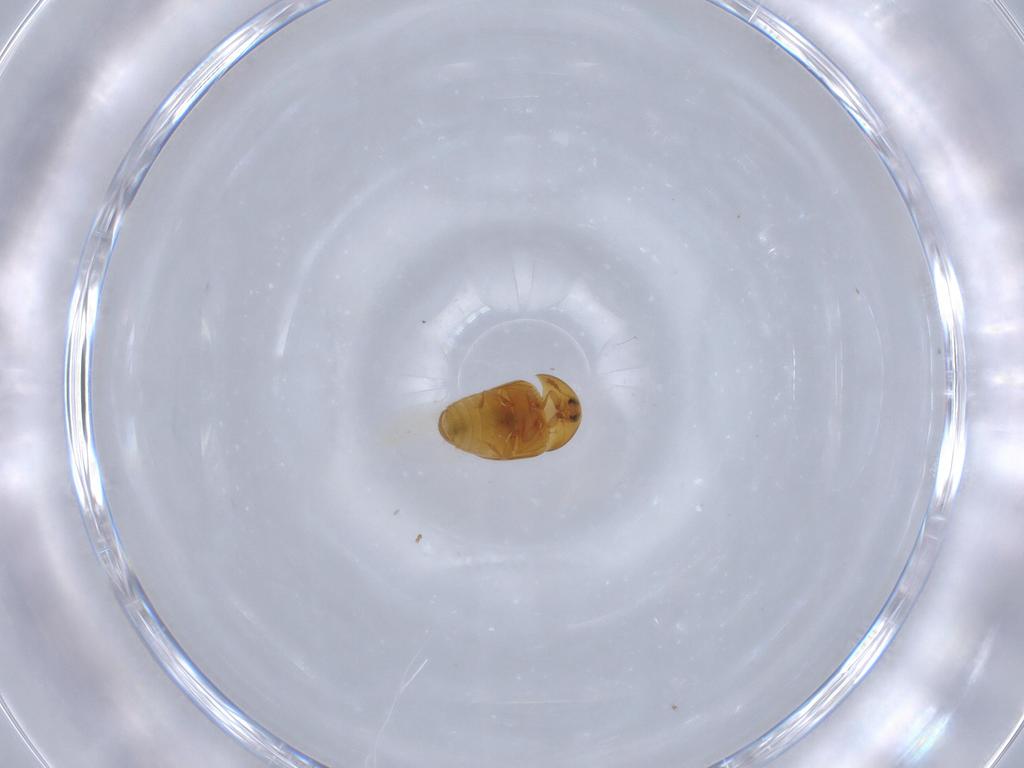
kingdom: Animalia
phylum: Arthropoda
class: Insecta
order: Coleoptera
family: Corylophidae
